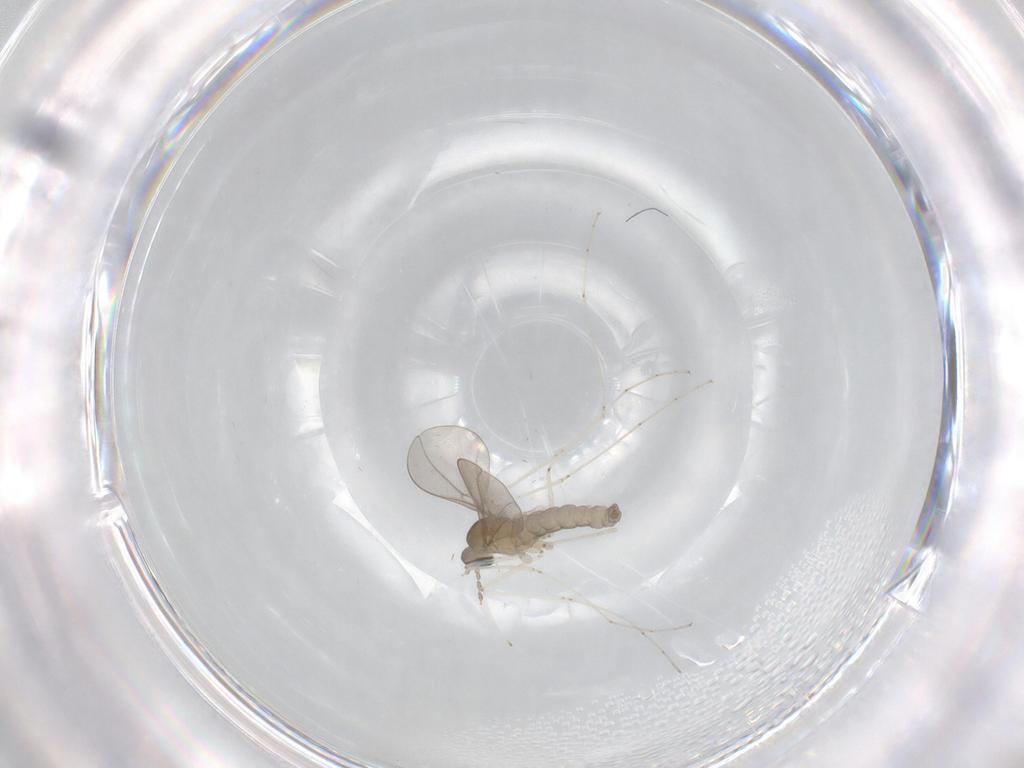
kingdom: Animalia
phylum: Arthropoda
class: Insecta
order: Diptera
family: Cecidomyiidae
